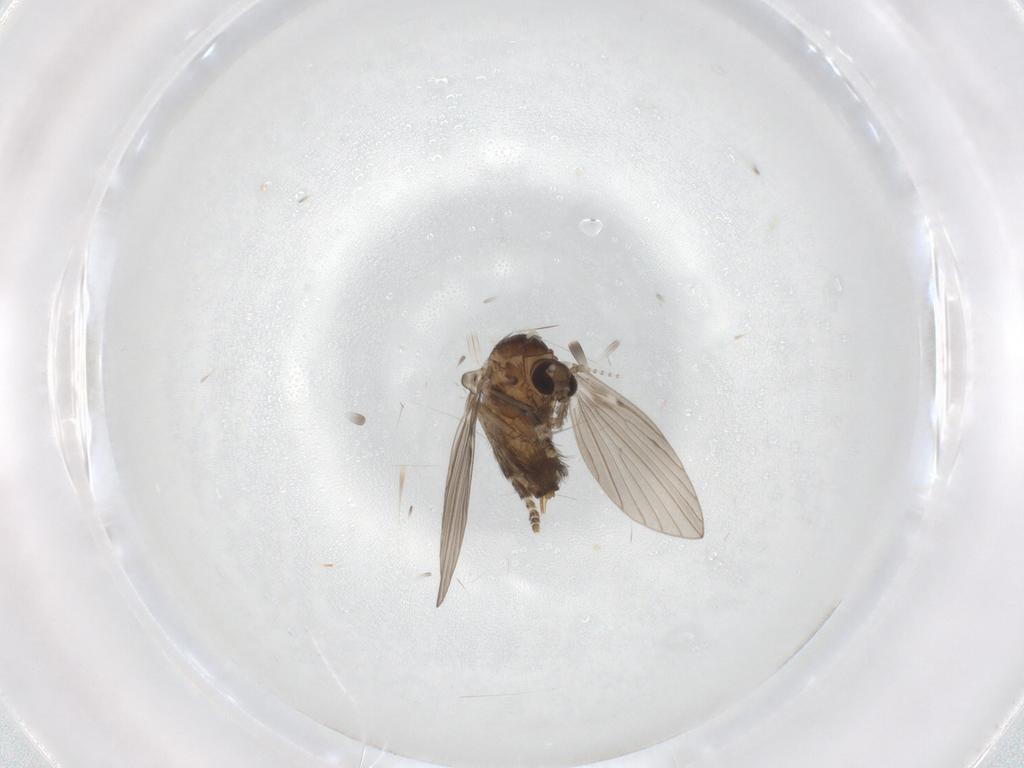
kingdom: Animalia
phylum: Arthropoda
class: Insecta
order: Diptera
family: Psychodidae
